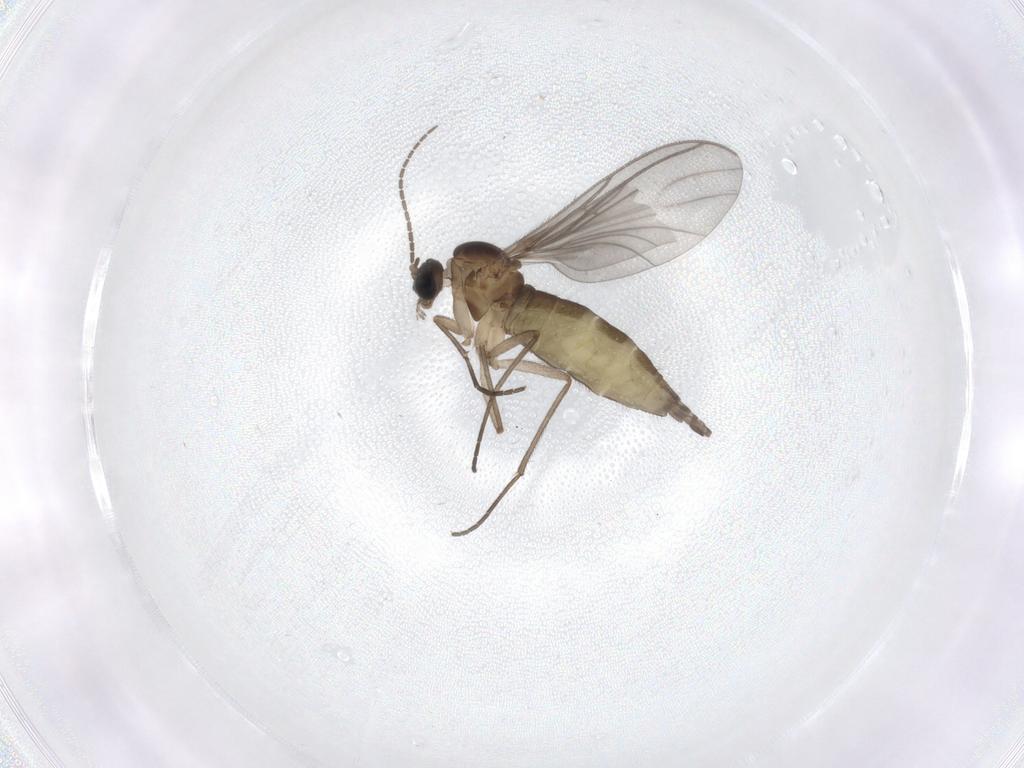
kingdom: Animalia
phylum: Arthropoda
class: Insecta
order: Diptera
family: Sciaridae
